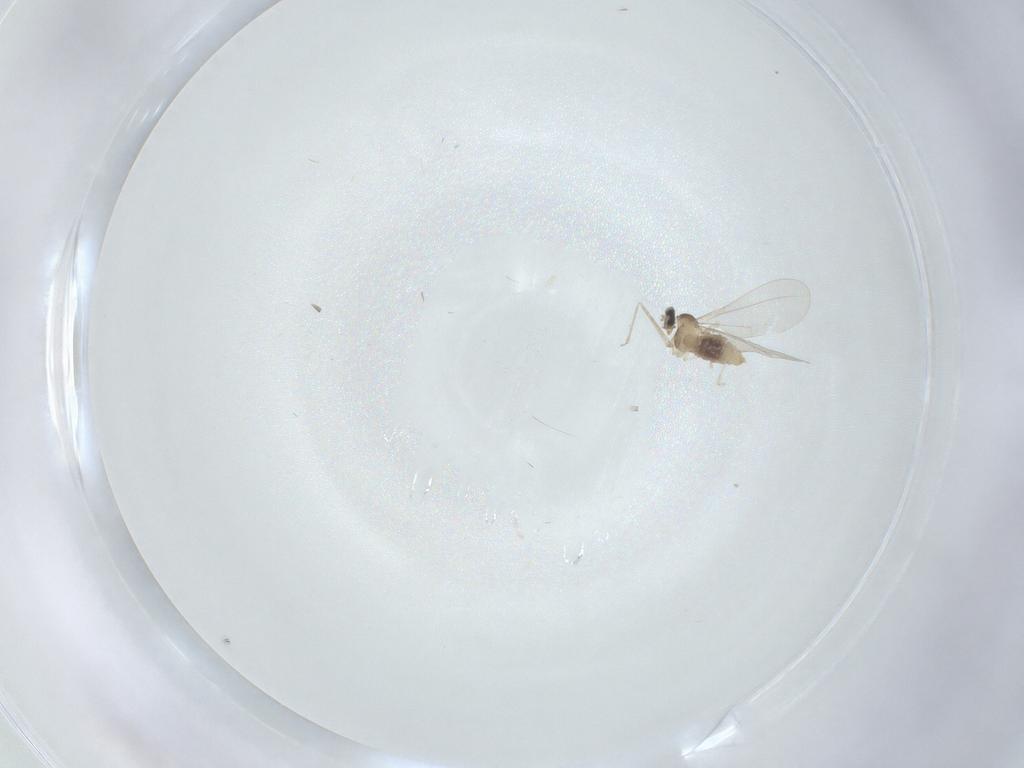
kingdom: Animalia
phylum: Arthropoda
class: Insecta
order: Diptera
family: Cecidomyiidae
